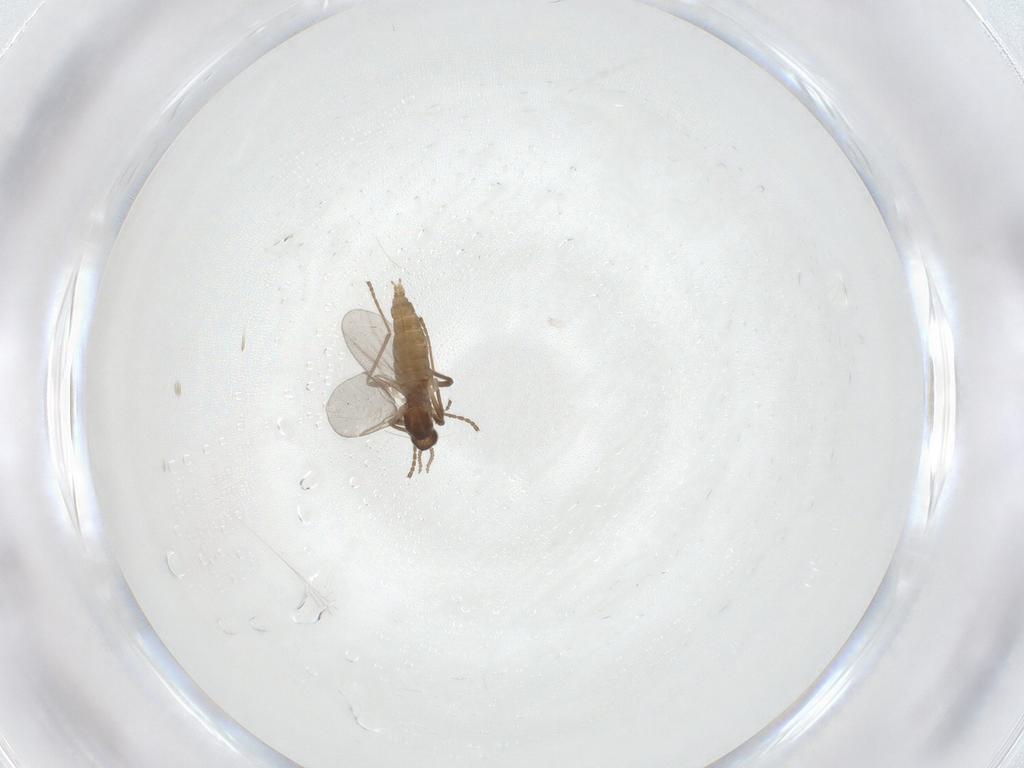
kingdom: Animalia
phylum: Arthropoda
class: Insecta
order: Diptera
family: Cecidomyiidae
